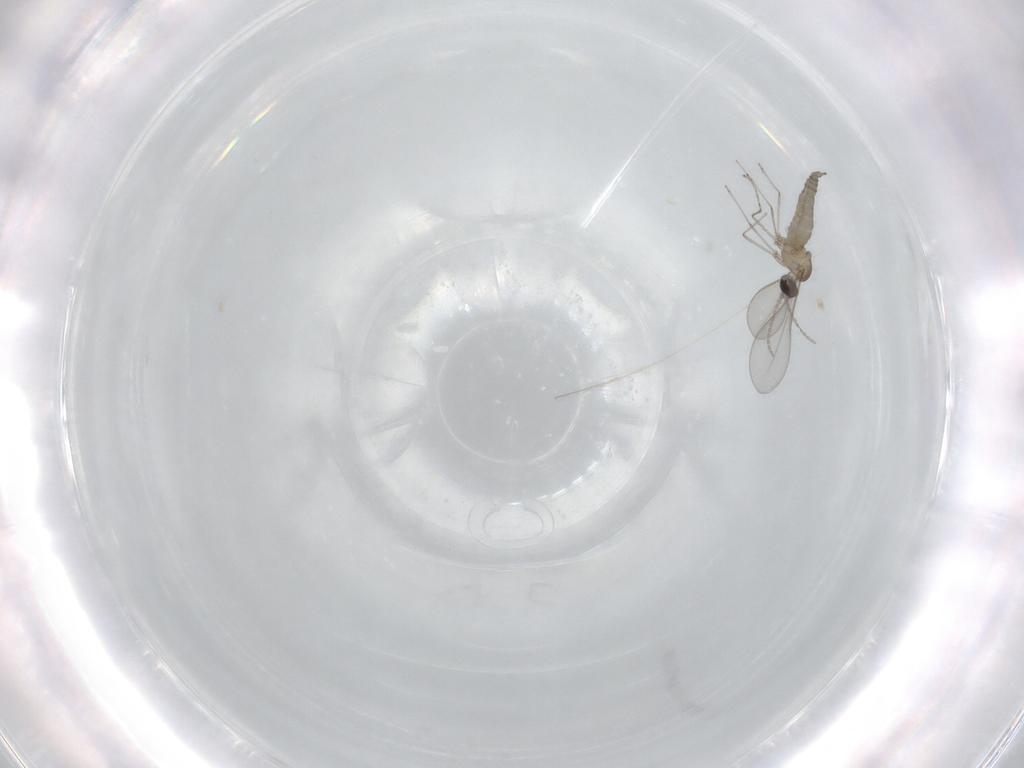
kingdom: Animalia
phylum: Arthropoda
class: Insecta
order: Diptera
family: Cecidomyiidae
